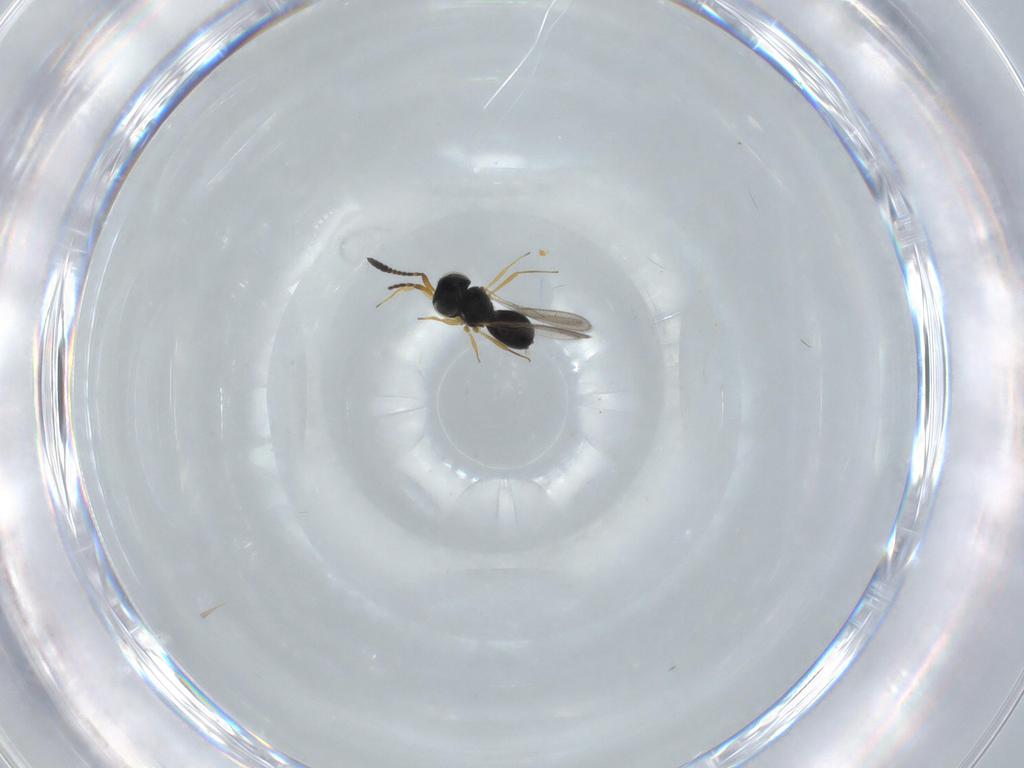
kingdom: Animalia
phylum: Arthropoda
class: Insecta
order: Hymenoptera
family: Scelionidae
